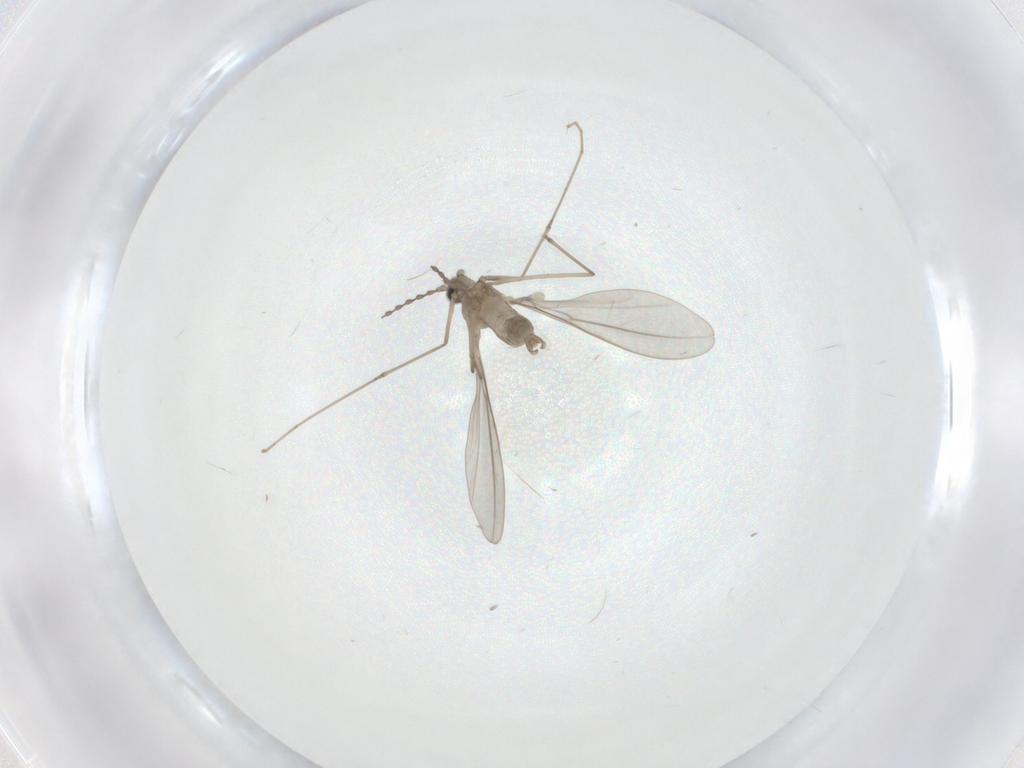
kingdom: Animalia
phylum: Arthropoda
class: Insecta
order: Diptera
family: Cecidomyiidae
